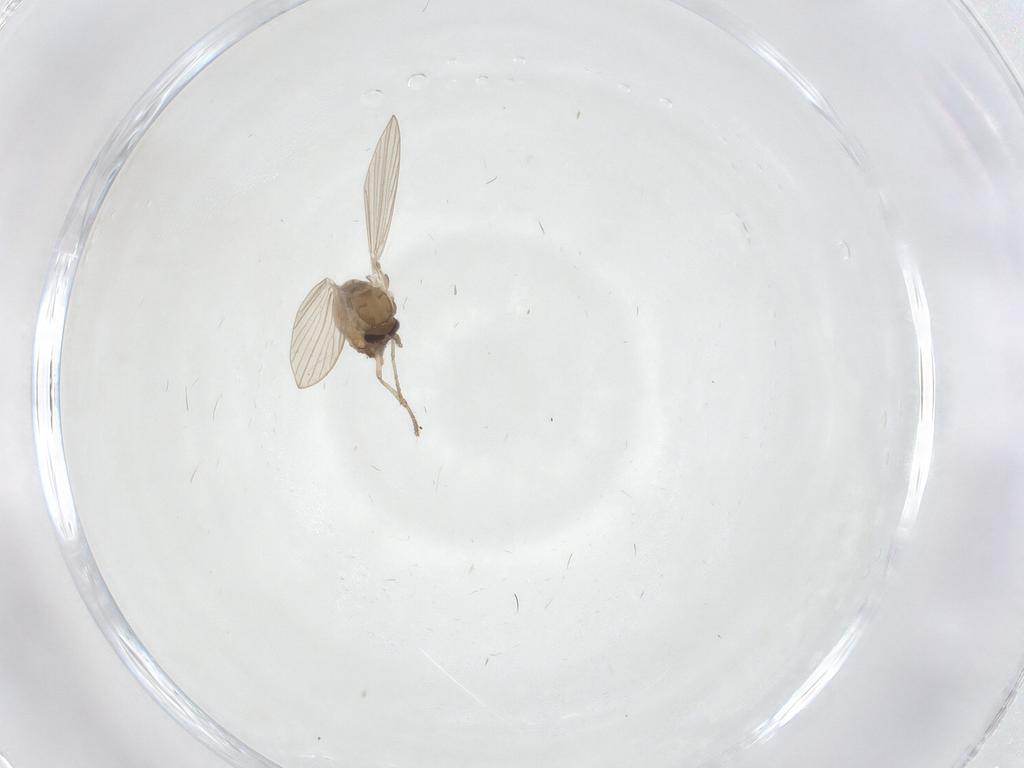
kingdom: Animalia
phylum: Arthropoda
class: Insecta
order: Diptera
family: Psychodidae
